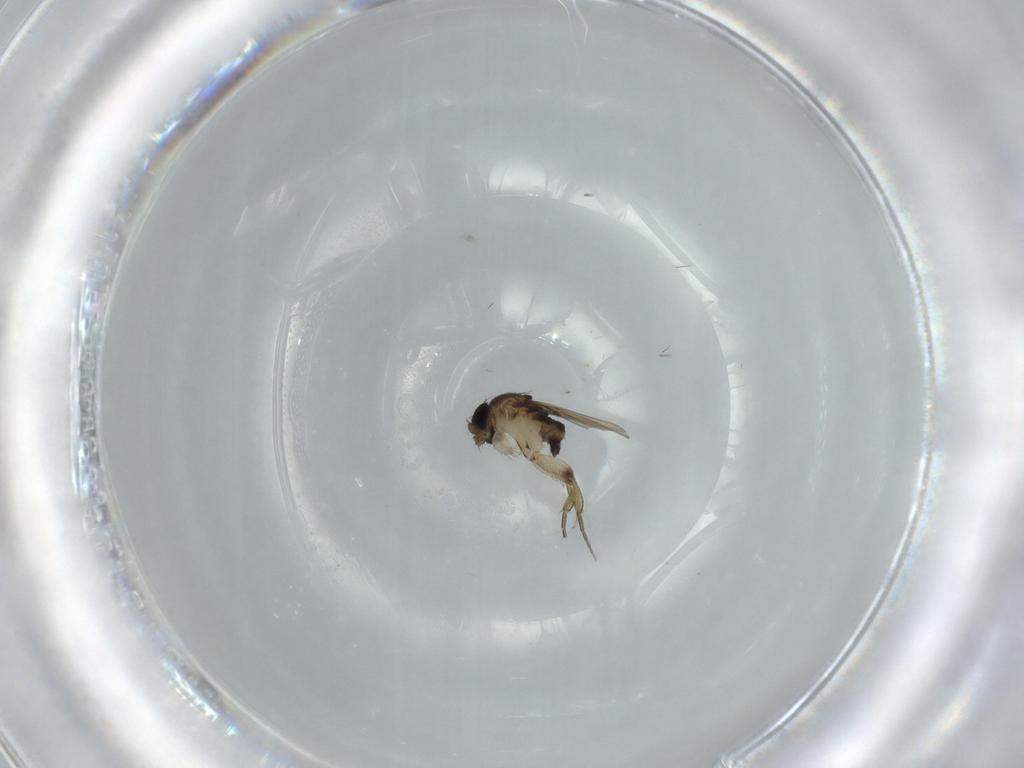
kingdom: Animalia
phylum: Arthropoda
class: Insecta
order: Diptera
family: Phoridae
